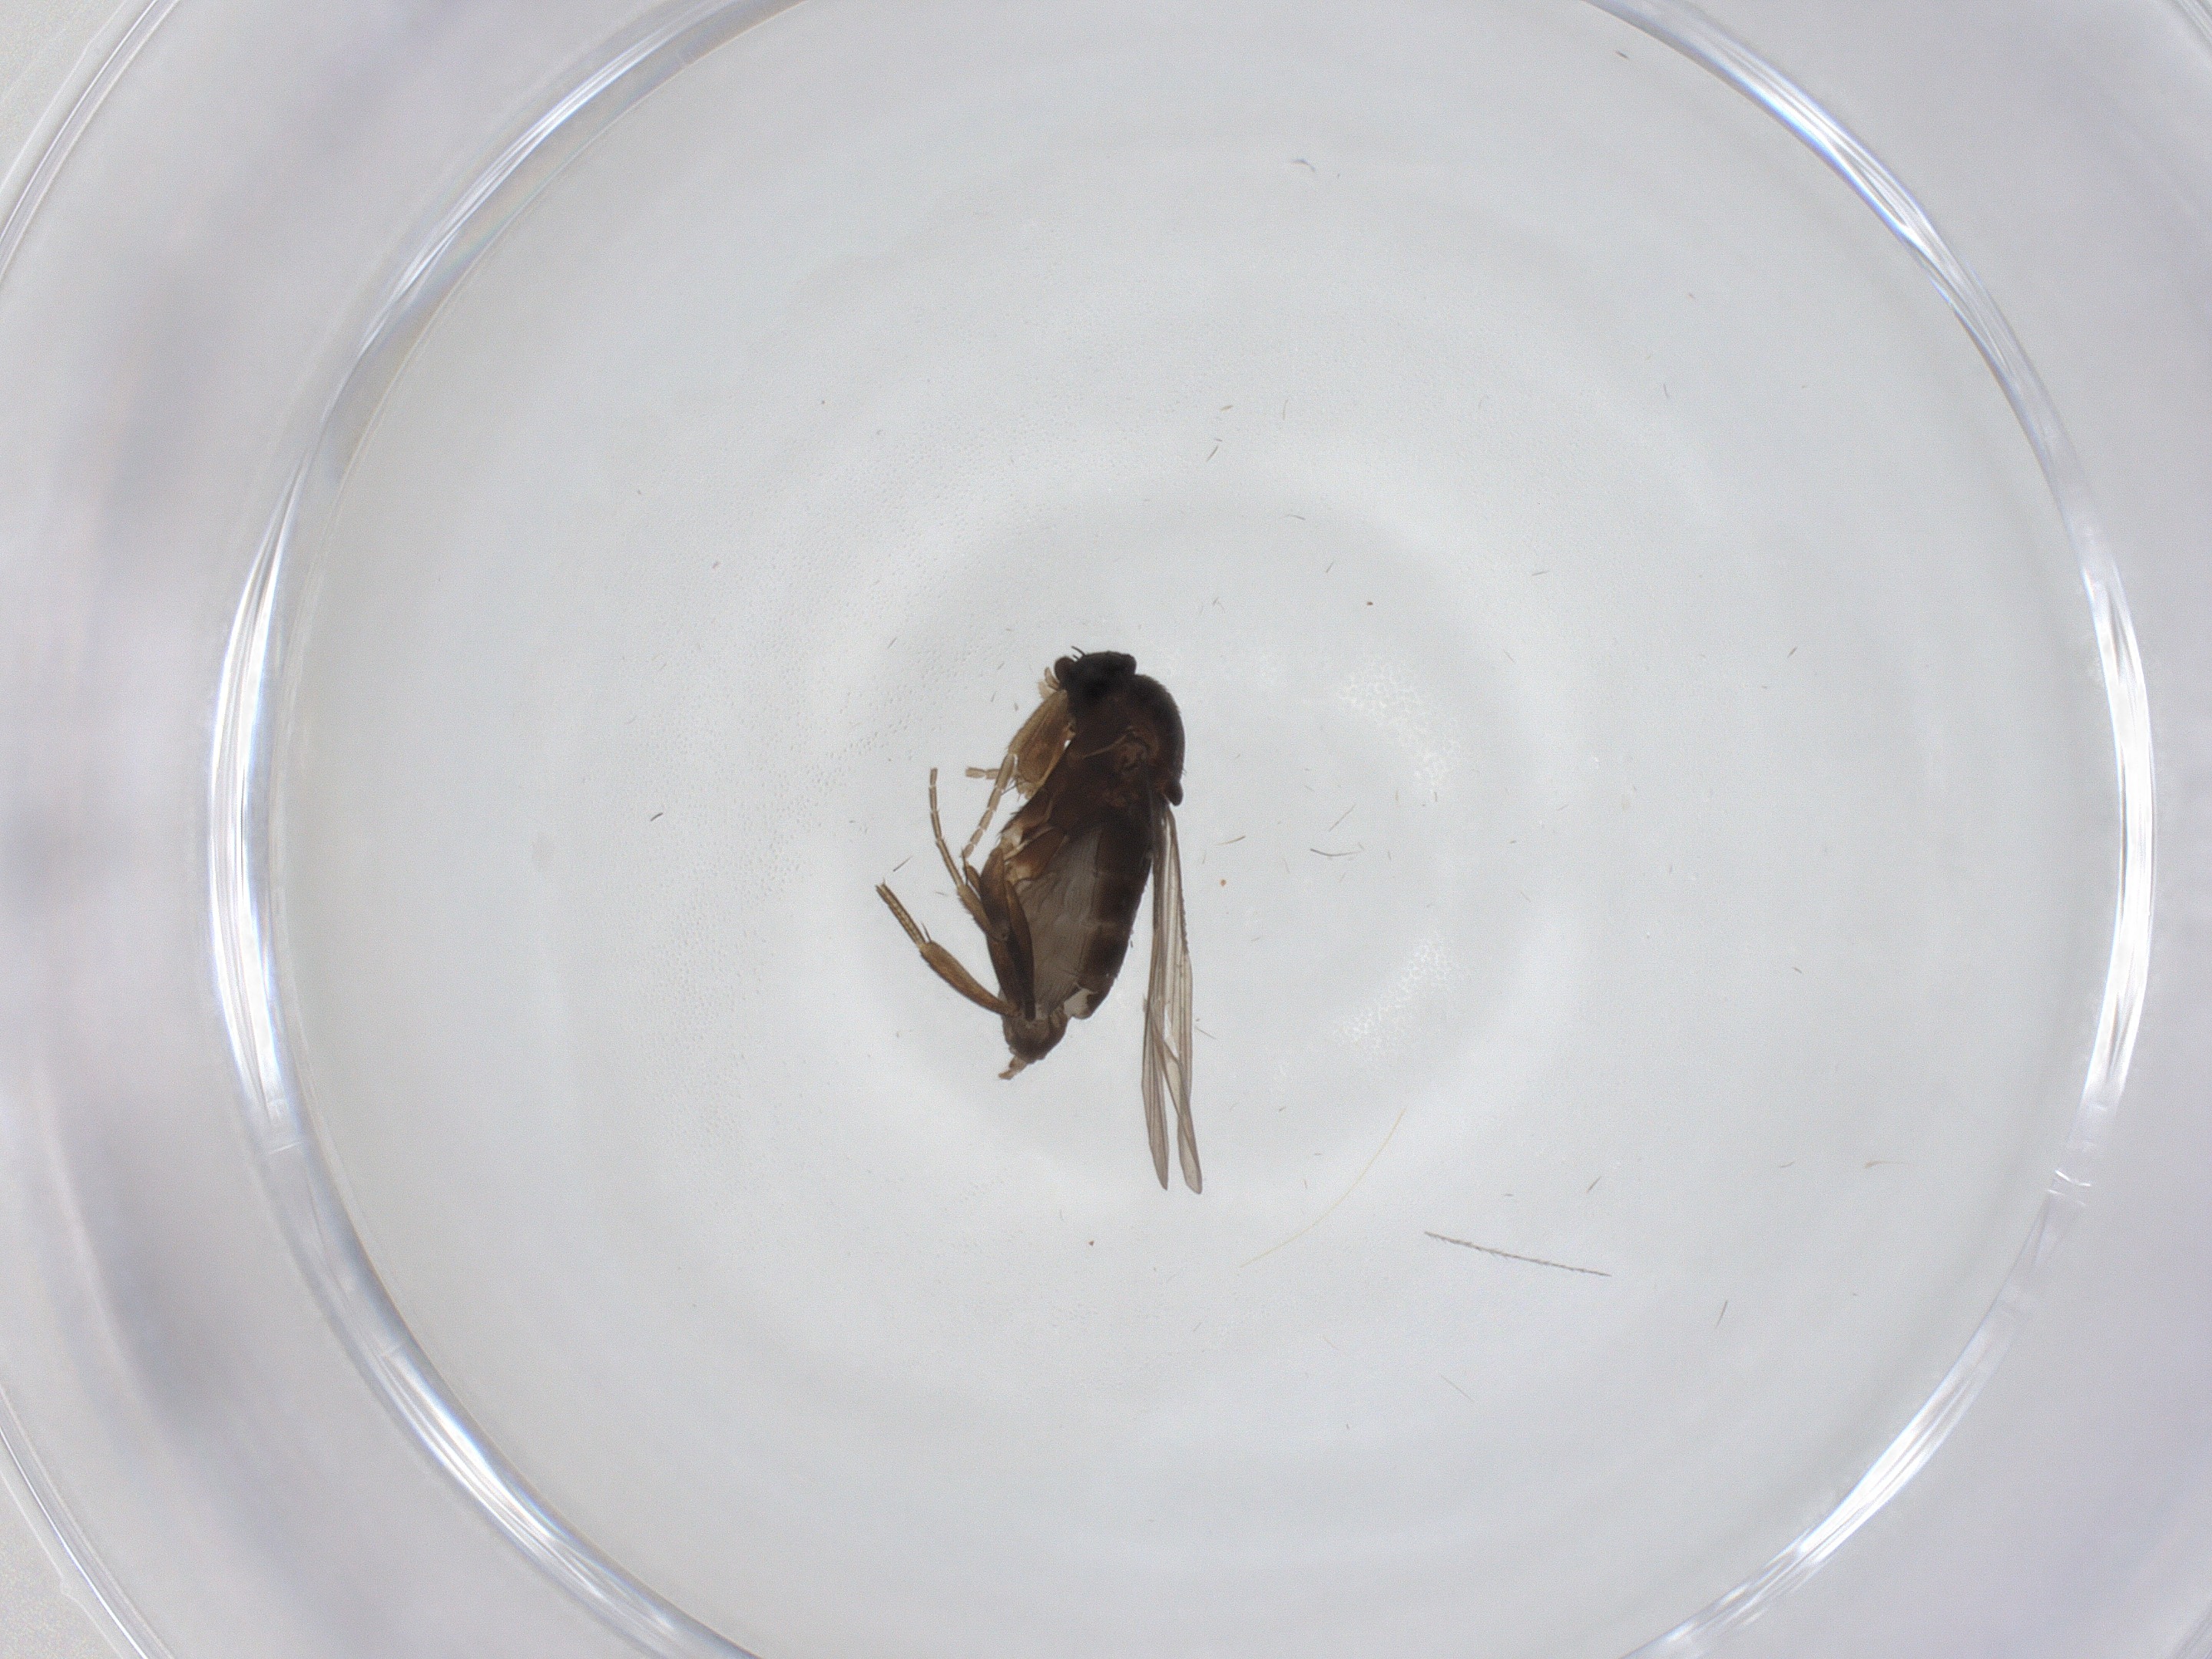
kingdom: Animalia
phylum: Arthropoda
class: Insecta
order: Diptera
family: Phoridae
